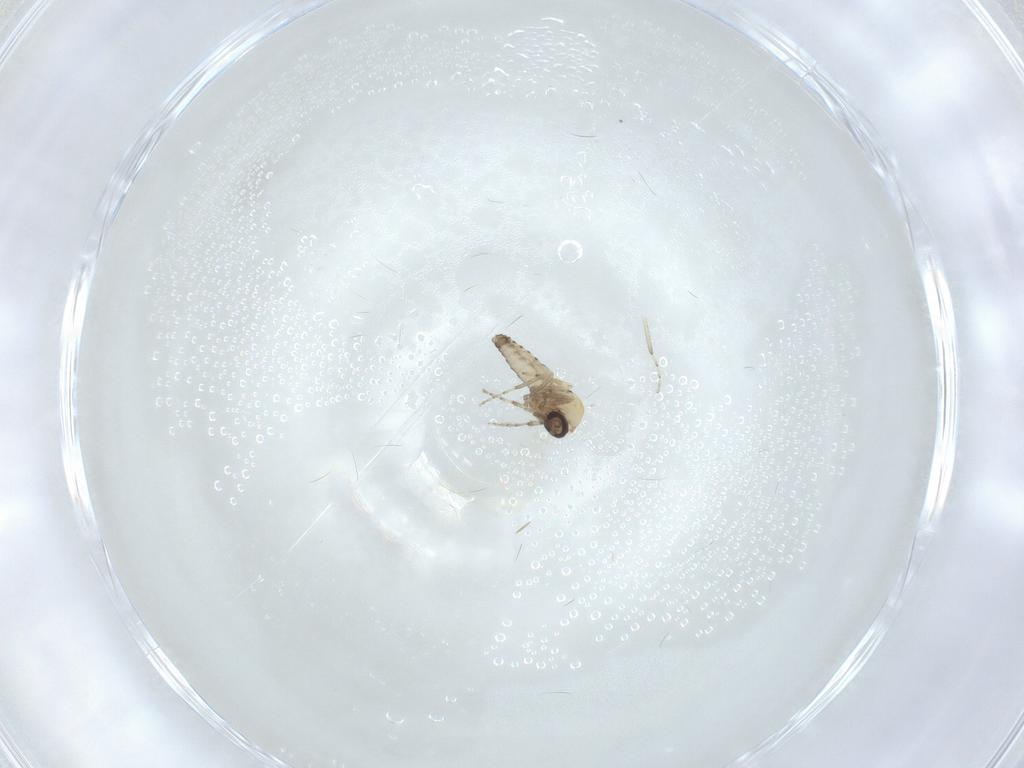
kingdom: Animalia
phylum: Arthropoda
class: Insecta
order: Diptera
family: Ceratopogonidae
